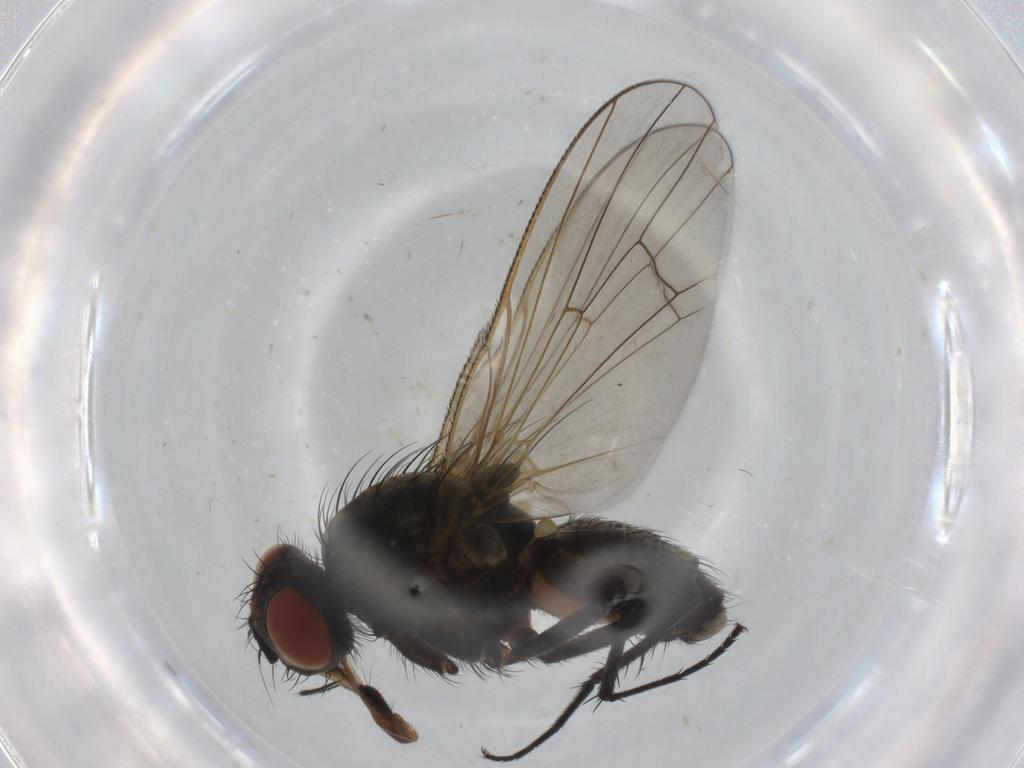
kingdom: Animalia
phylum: Arthropoda
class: Insecta
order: Diptera
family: Anthomyiidae
